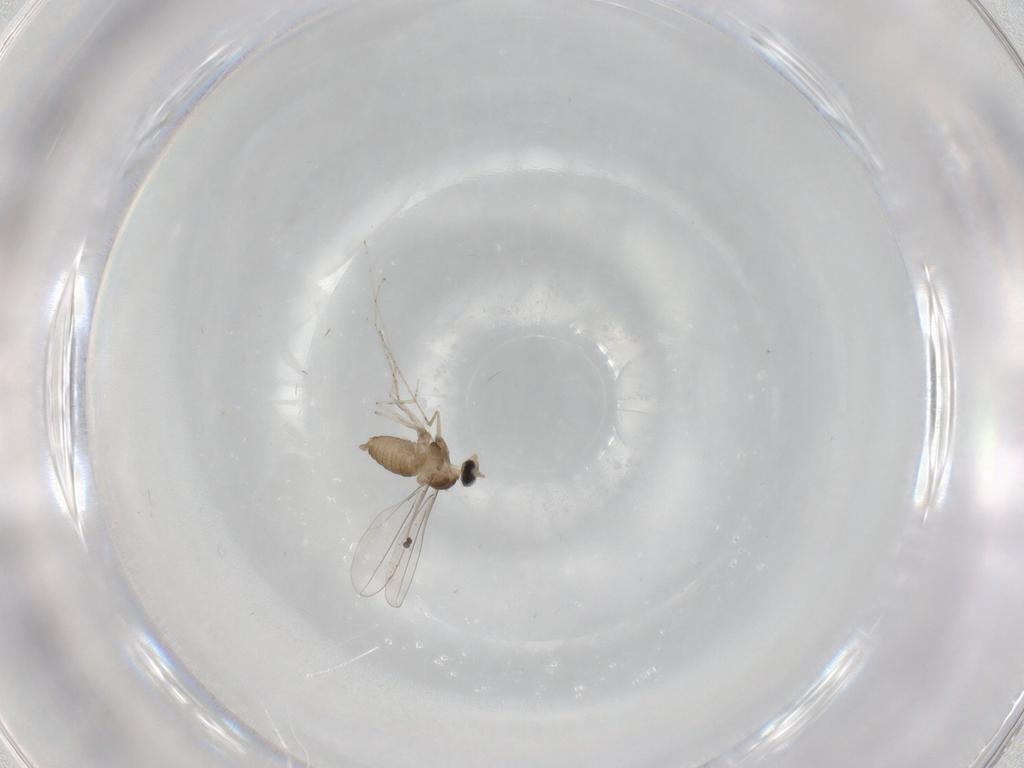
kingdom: Animalia
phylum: Arthropoda
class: Insecta
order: Diptera
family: Cecidomyiidae
